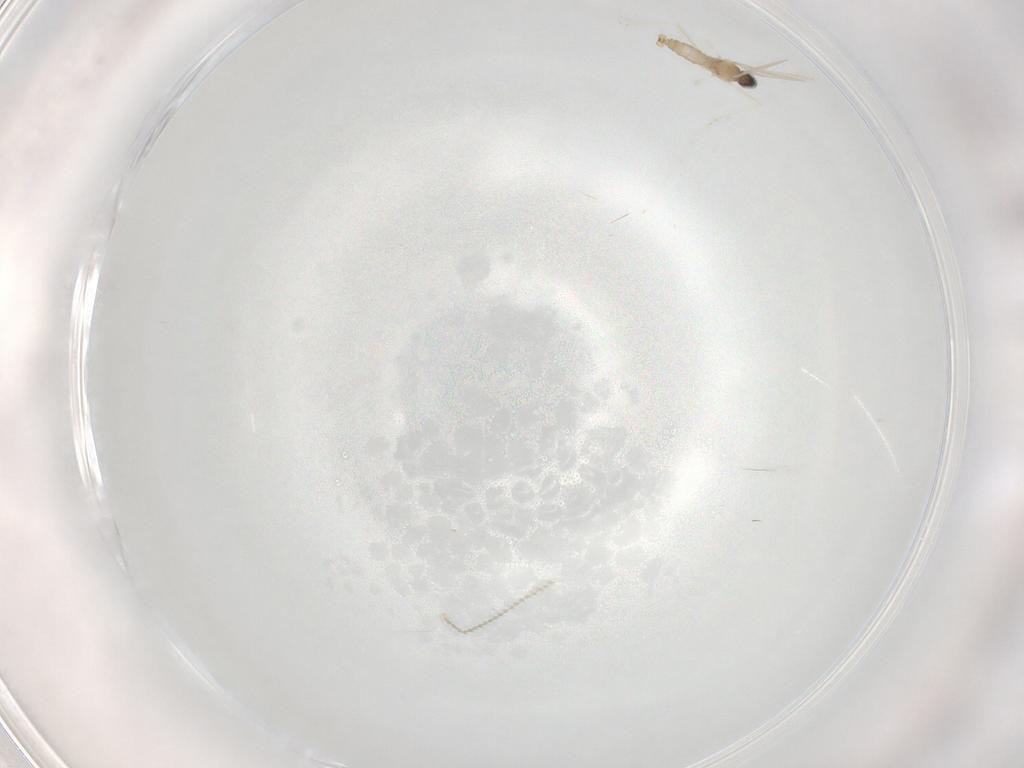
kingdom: Animalia
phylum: Arthropoda
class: Insecta
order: Diptera
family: Cecidomyiidae
